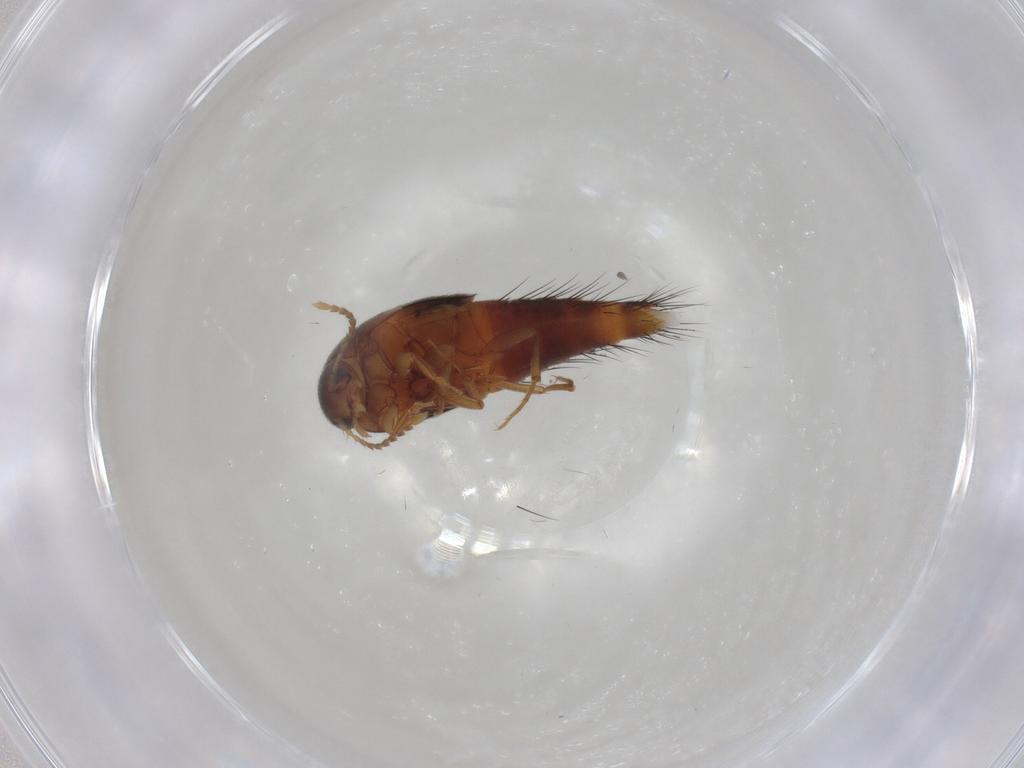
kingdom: Animalia
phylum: Arthropoda
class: Insecta
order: Coleoptera
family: Staphylinidae
